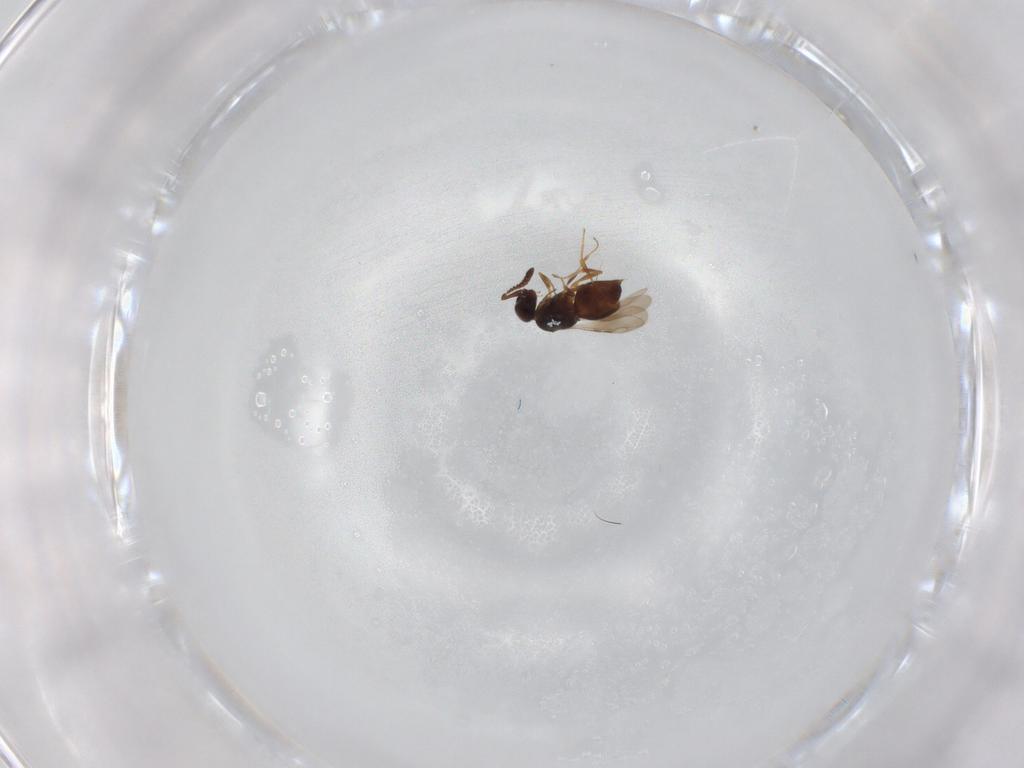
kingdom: Animalia
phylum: Arthropoda
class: Insecta
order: Hymenoptera
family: Ceraphronidae
